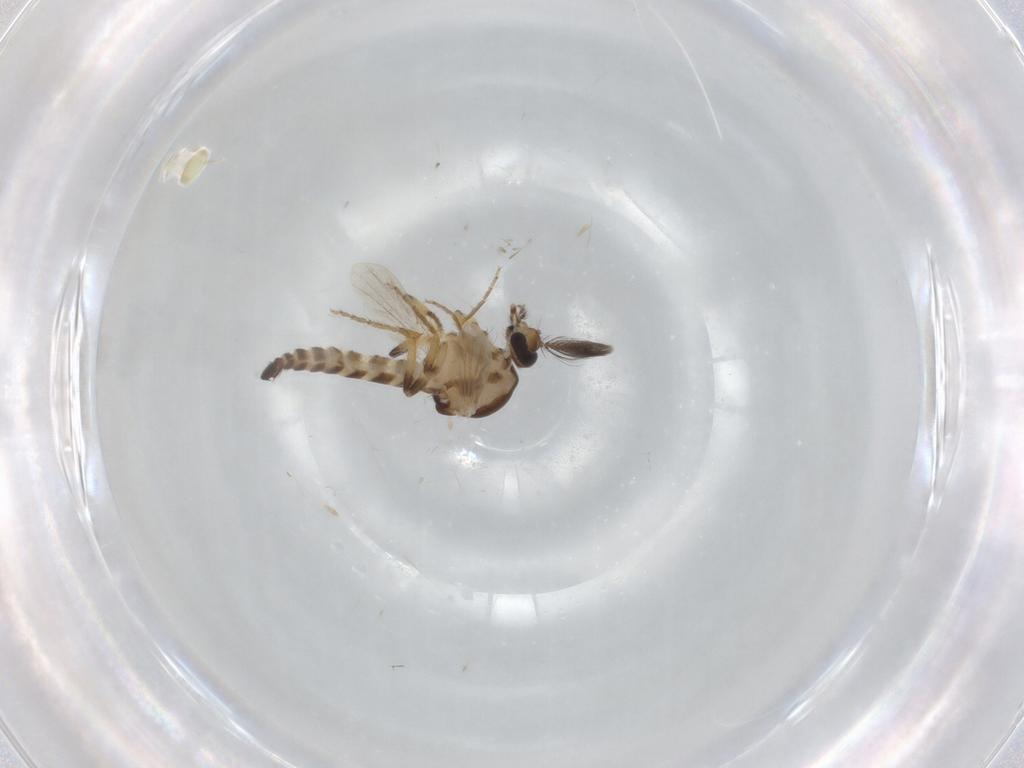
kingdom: Animalia
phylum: Arthropoda
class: Insecta
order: Diptera
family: Ceratopogonidae
